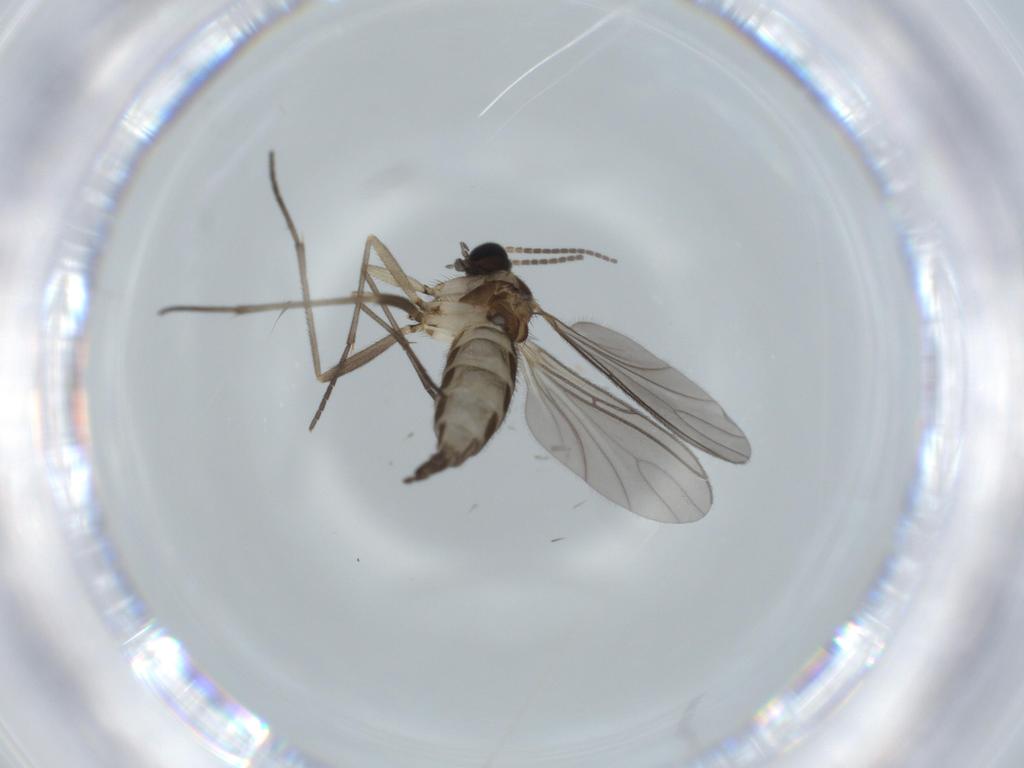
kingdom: Animalia
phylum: Arthropoda
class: Insecta
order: Diptera
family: Sciaridae
